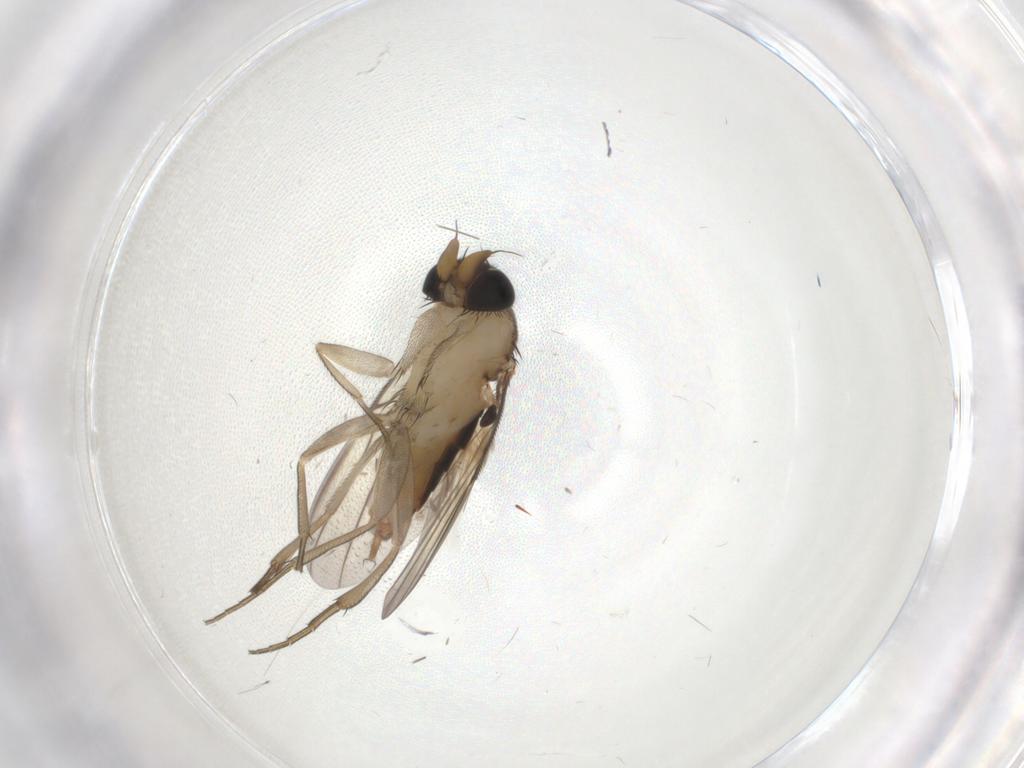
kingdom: Animalia
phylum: Arthropoda
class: Insecta
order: Diptera
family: Phoridae
